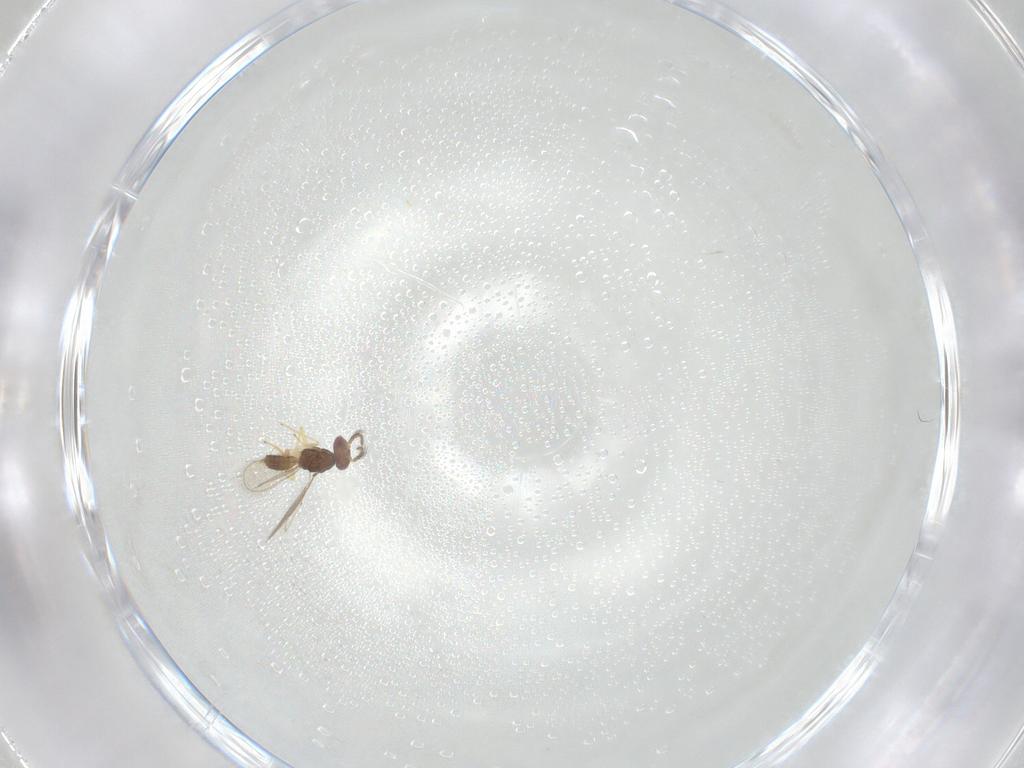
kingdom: Animalia
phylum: Arthropoda
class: Insecta
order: Hymenoptera
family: Eulophidae
